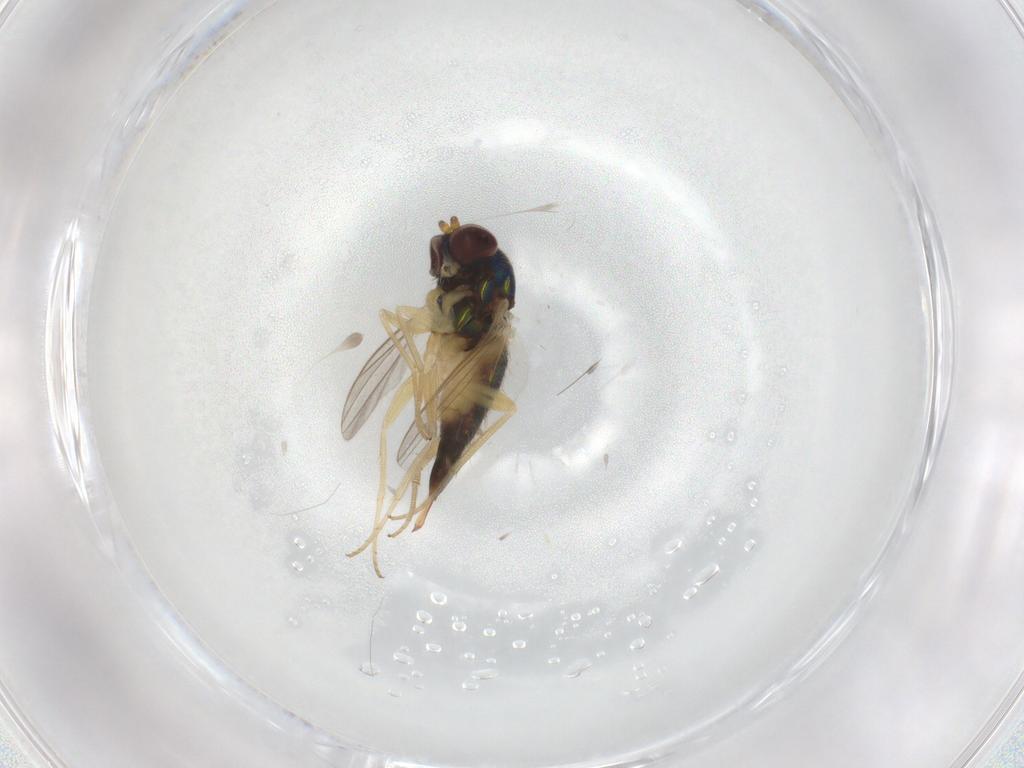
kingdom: Animalia
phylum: Arthropoda
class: Insecta
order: Diptera
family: Dolichopodidae
